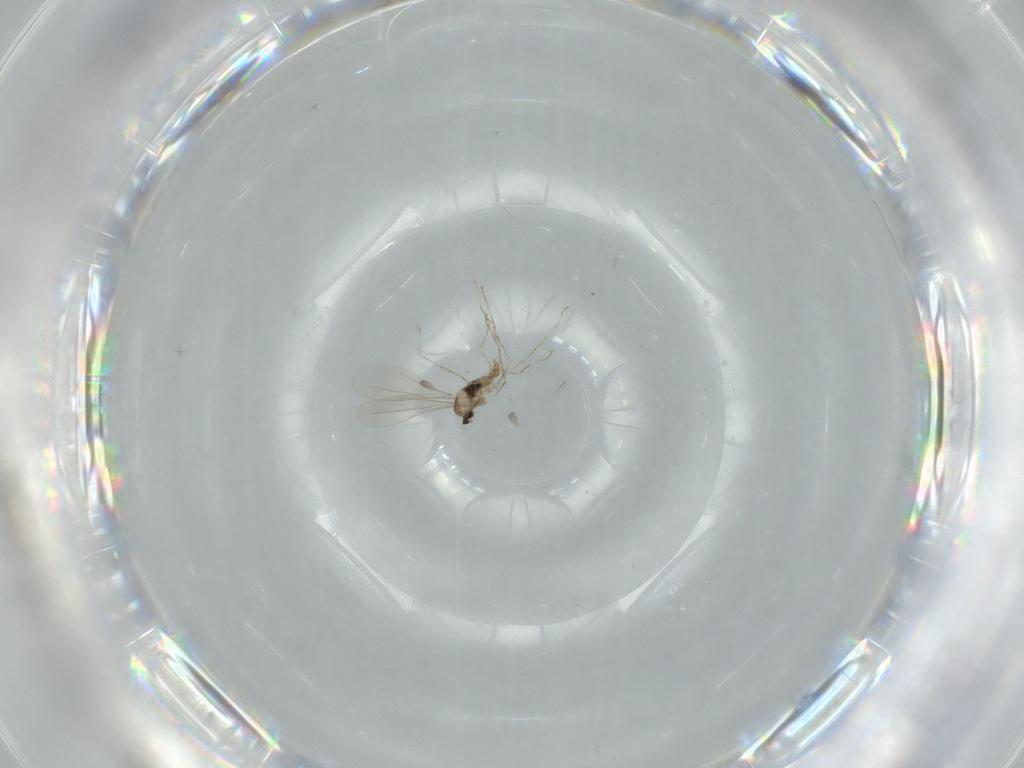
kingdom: Animalia
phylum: Arthropoda
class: Insecta
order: Diptera
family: Cecidomyiidae
